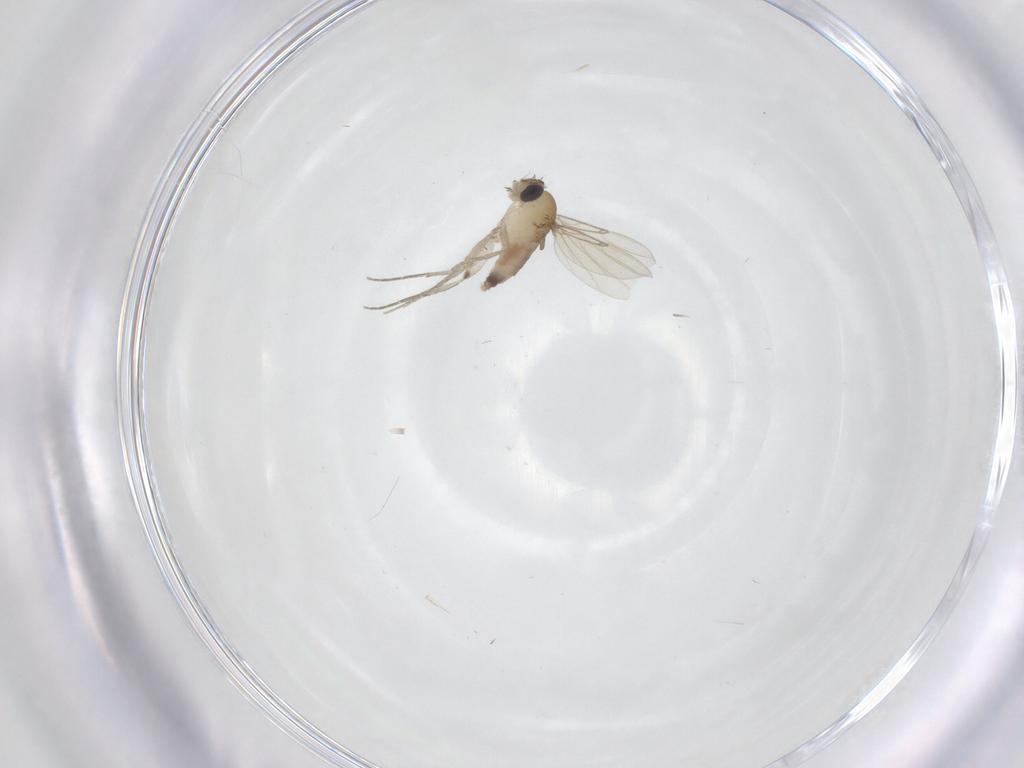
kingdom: Animalia
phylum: Arthropoda
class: Insecta
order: Diptera
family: Phoridae
